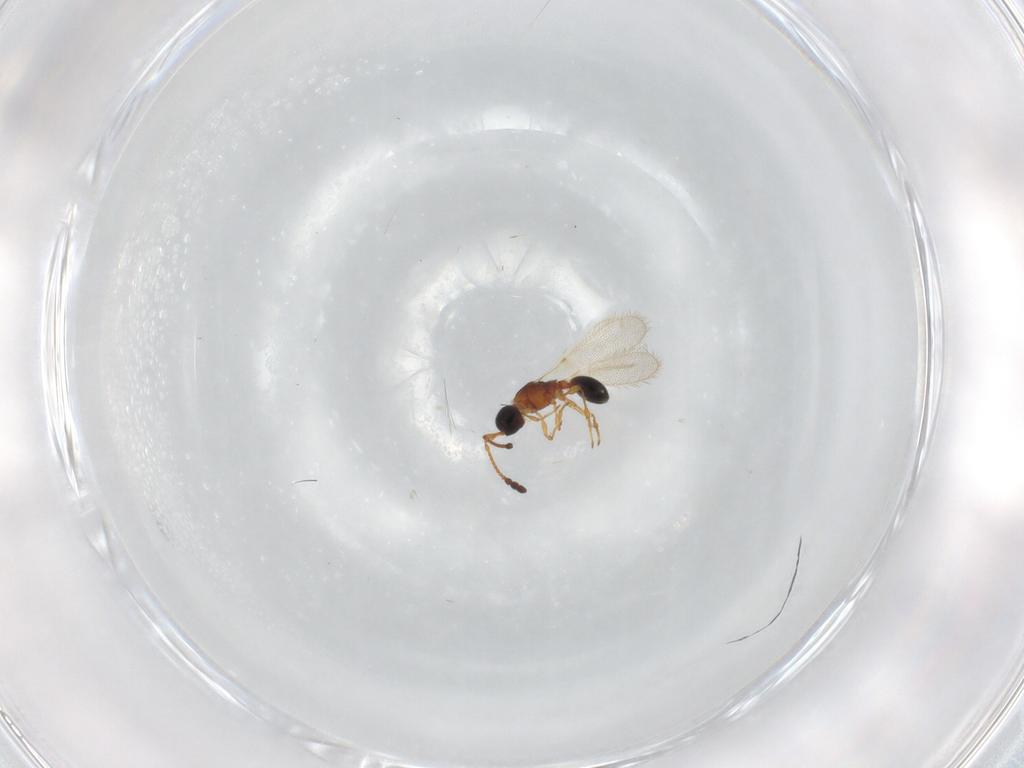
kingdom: Animalia
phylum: Arthropoda
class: Insecta
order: Hymenoptera
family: Diapriidae
